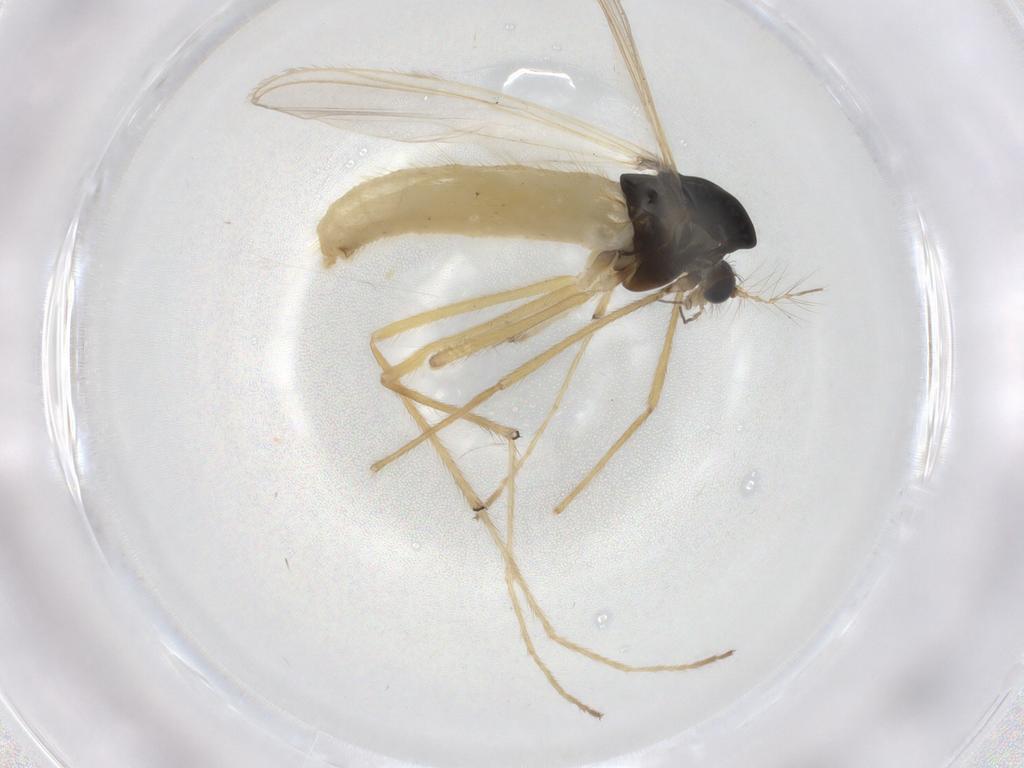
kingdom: Animalia
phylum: Arthropoda
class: Insecta
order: Diptera
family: Chironomidae
